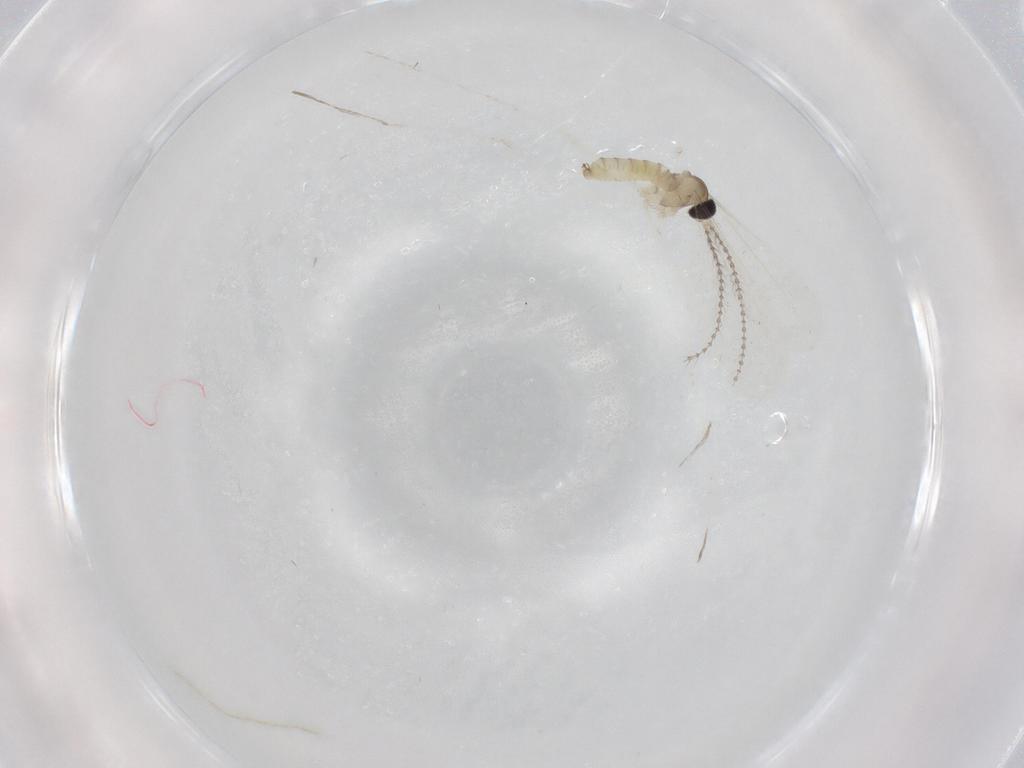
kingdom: Animalia
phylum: Arthropoda
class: Insecta
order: Diptera
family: Cecidomyiidae
